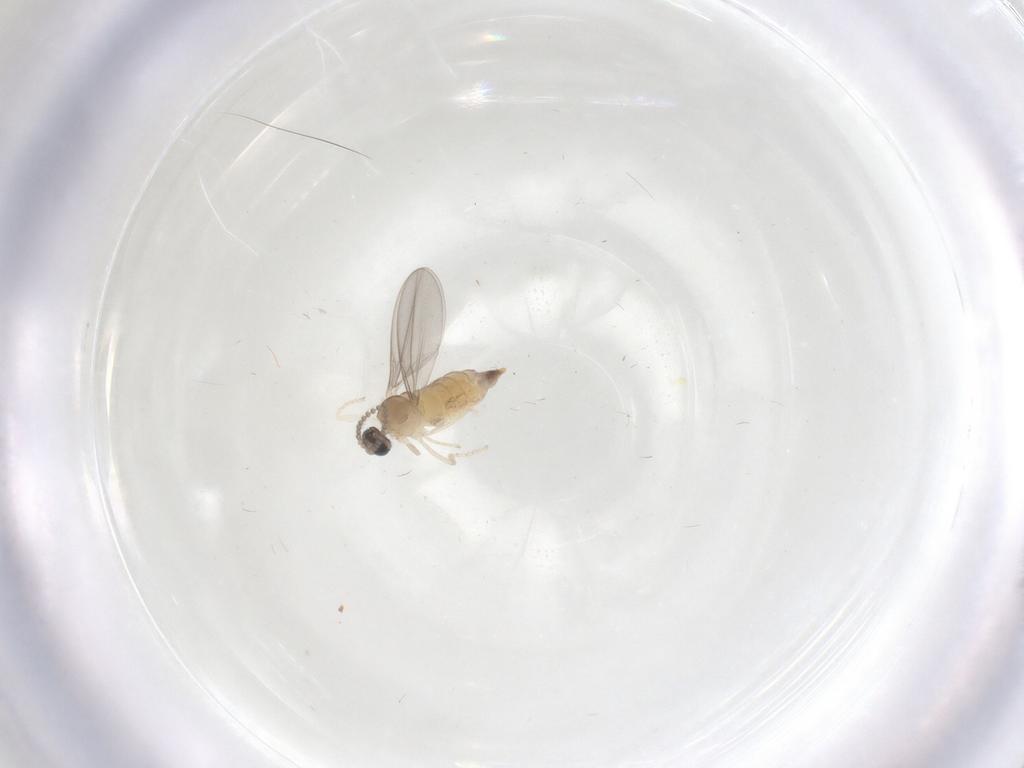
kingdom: Animalia
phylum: Arthropoda
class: Insecta
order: Diptera
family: Cecidomyiidae
